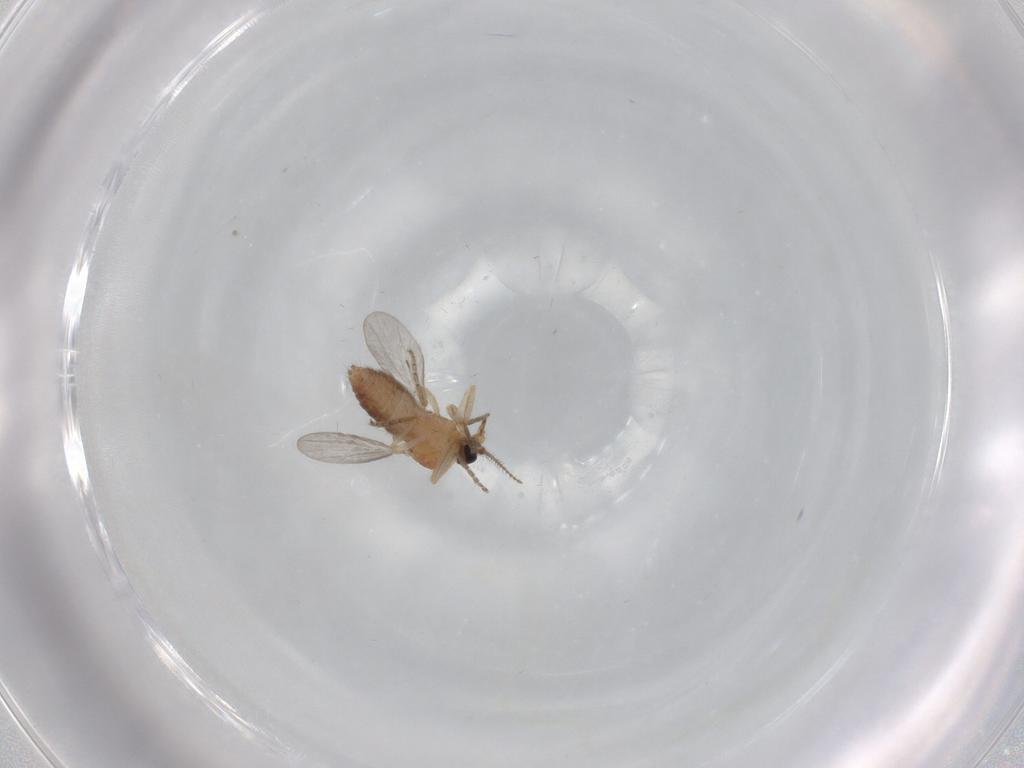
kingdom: Animalia
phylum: Arthropoda
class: Insecta
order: Diptera
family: Ceratopogonidae
